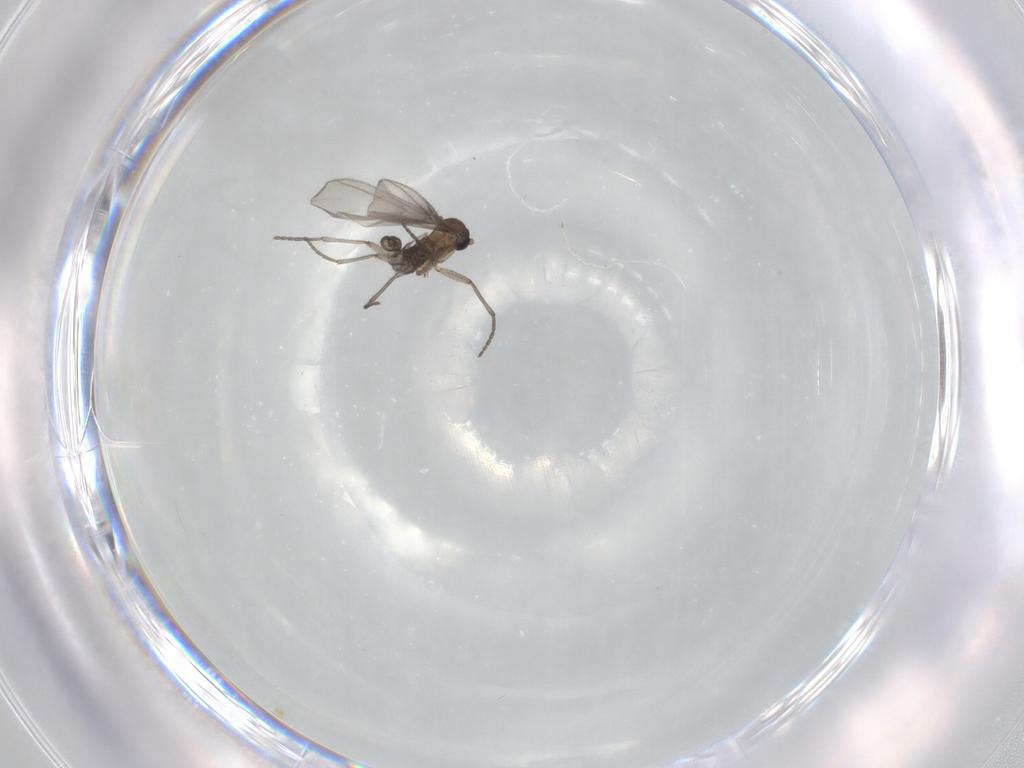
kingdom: Animalia
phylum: Arthropoda
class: Insecta
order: Diptera
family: Sciaridae
